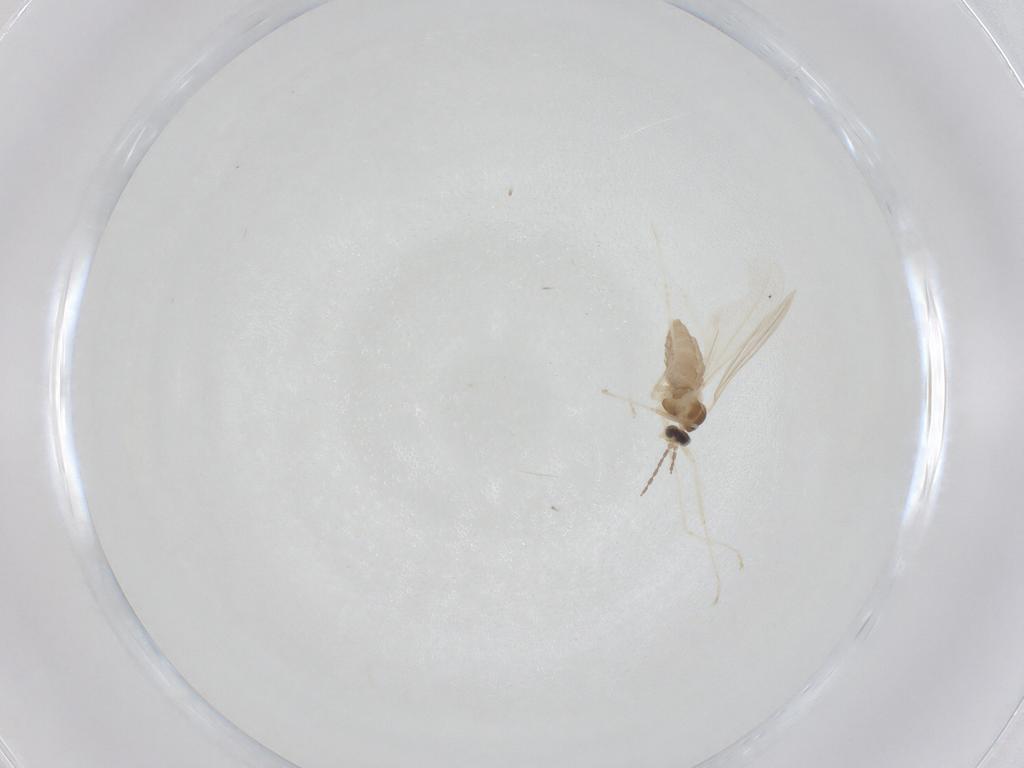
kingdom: Animalia
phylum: Arthropoda
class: Insecta
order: Diptera
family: Cecidomyiidae
